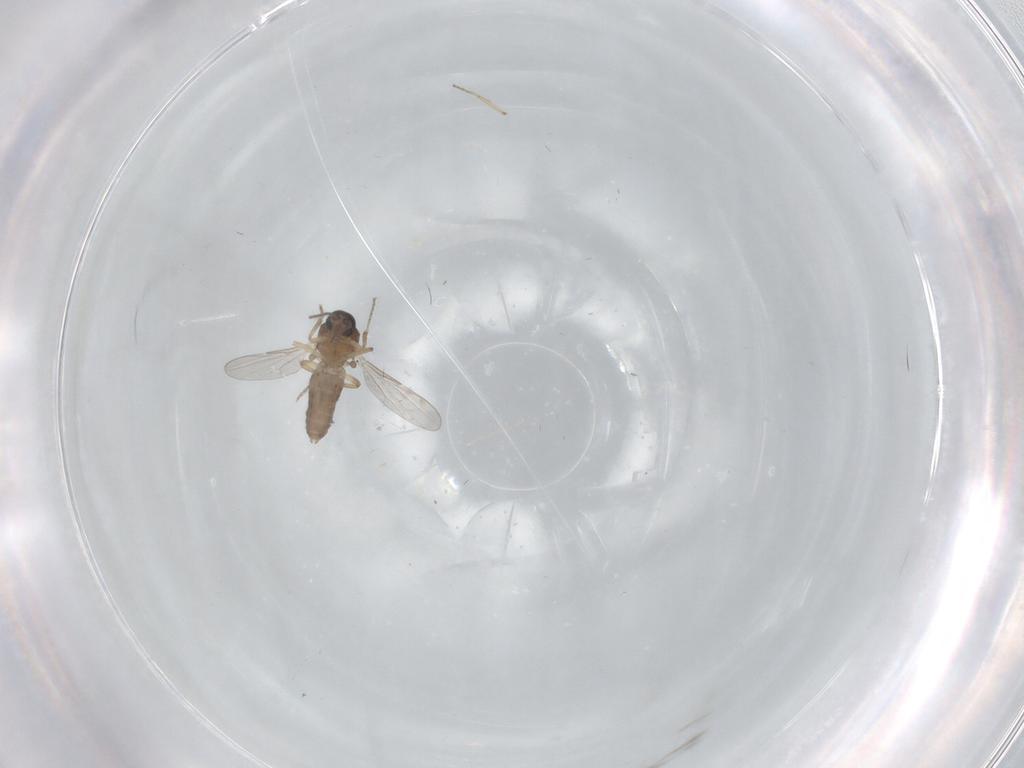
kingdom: Animalia
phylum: Arthropoda
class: Insecta
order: Diptera
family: Ceratopogonidae
